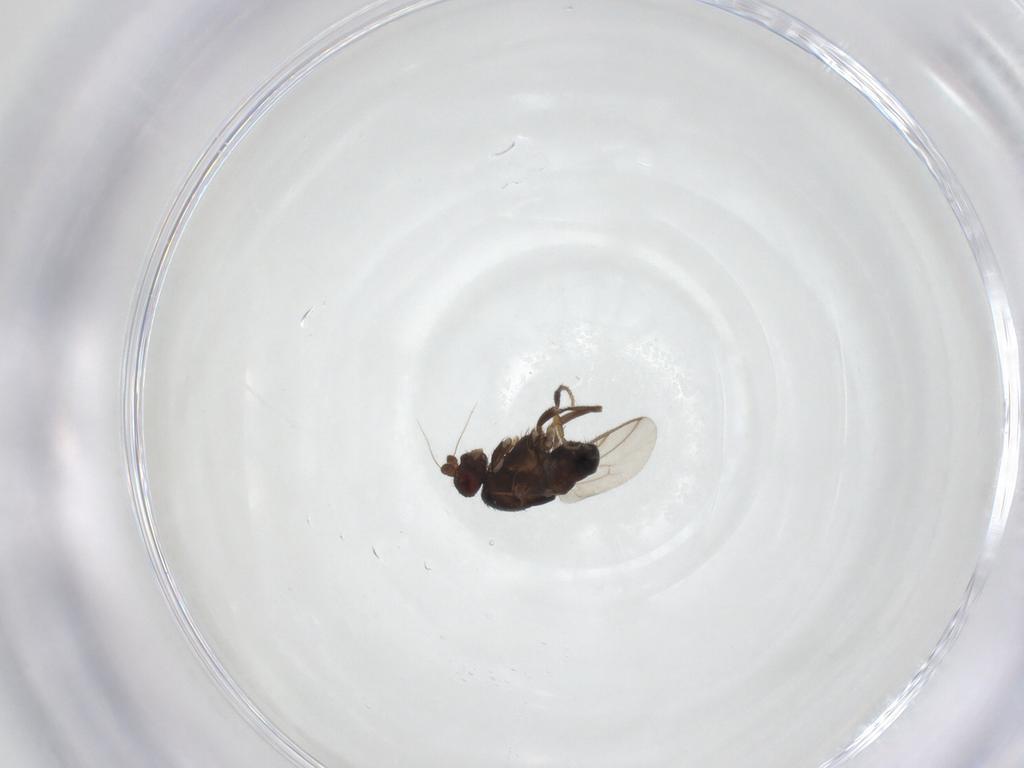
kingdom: Animalia
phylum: Arthropoda
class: Insecta
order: Diptera
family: Sphaeroceridae
